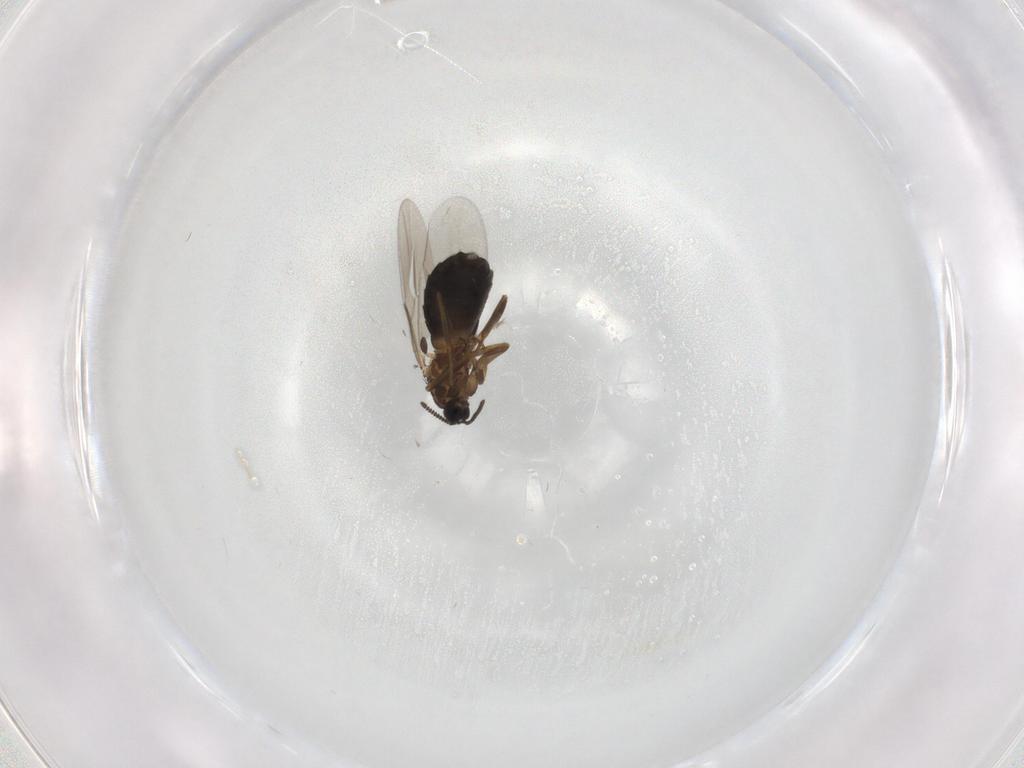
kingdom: Animalia
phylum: Arthropoda
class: Insecta
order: Diptera
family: Scatopsidae
